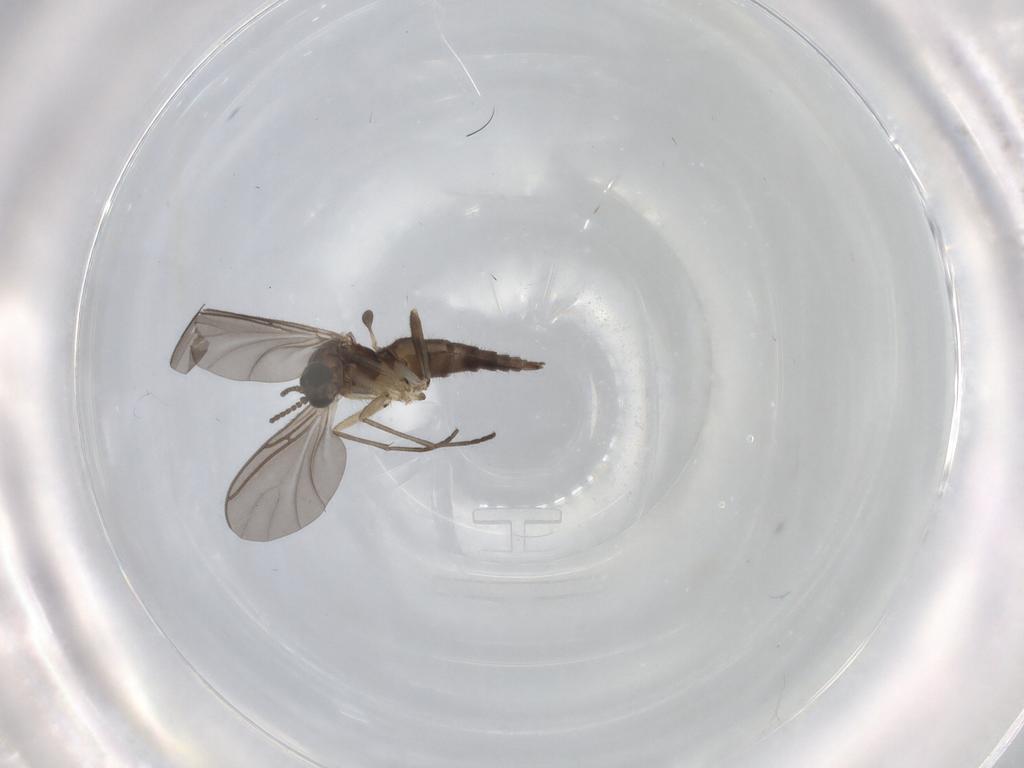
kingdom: Animalia
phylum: Arthropoda
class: Insecta
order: Diptera
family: Sciaridae
